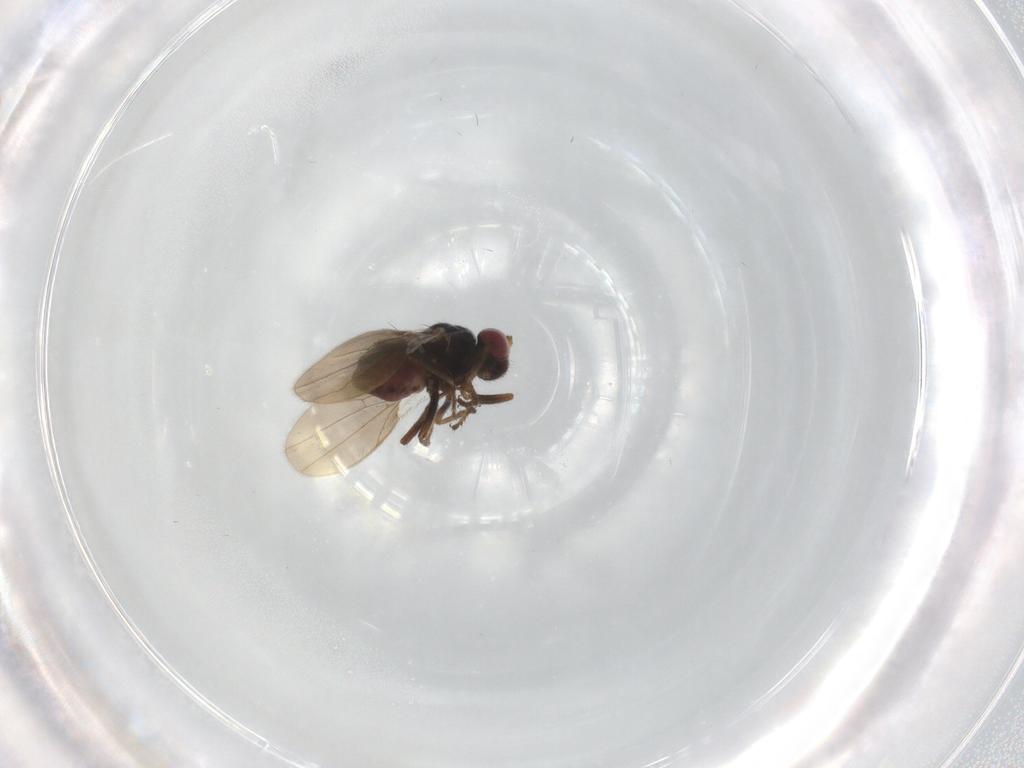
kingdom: Animalia
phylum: Arthropoda
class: Insecta
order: Diptera
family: Ephydridae
